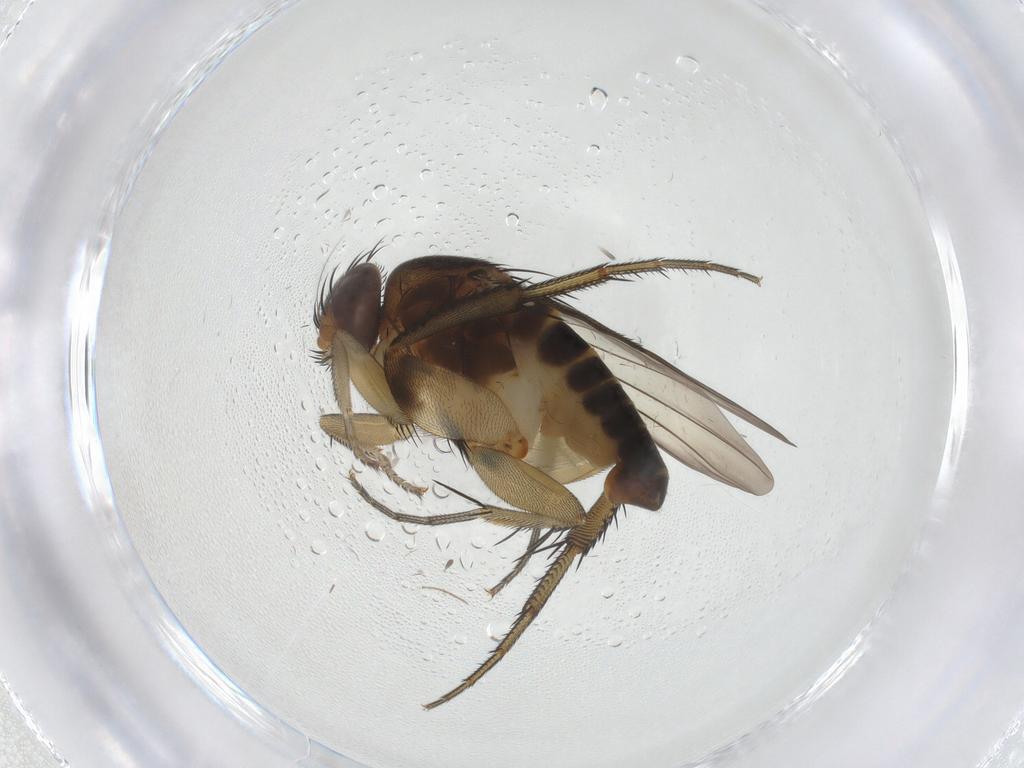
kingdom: Animalia
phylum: Arthropoda
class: Insecta
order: Diptera
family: Phoridae
